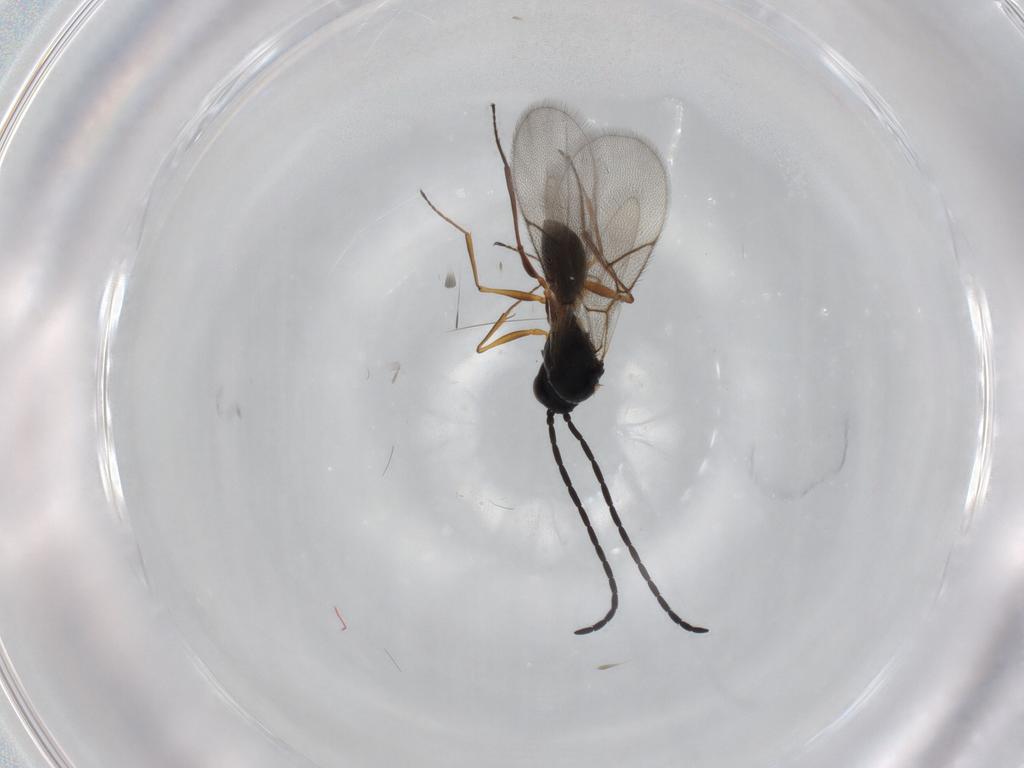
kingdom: Animalia
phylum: Arthropoda
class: Insecta
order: Hymenoptera
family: Figitidae
